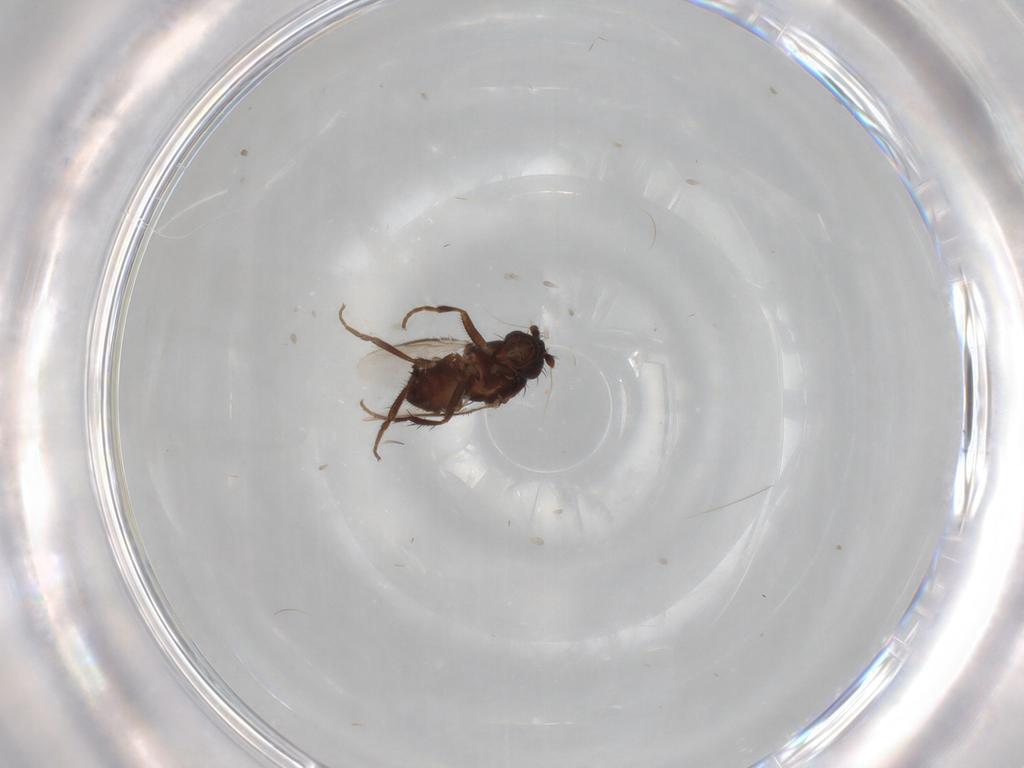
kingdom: Animalia
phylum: Arthropoda
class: Insecta
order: Diptera
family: Sphaeroceridae
